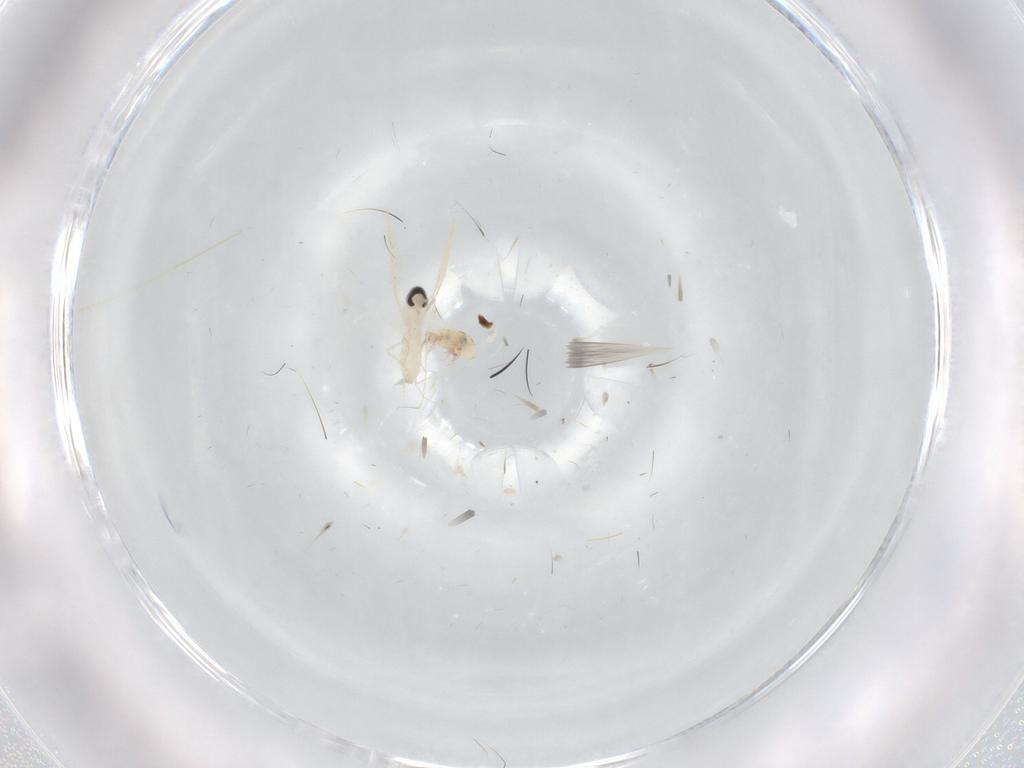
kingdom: Animalia
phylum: Arthropoda
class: Insecta
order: Diptera
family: Cecidomyiidae
